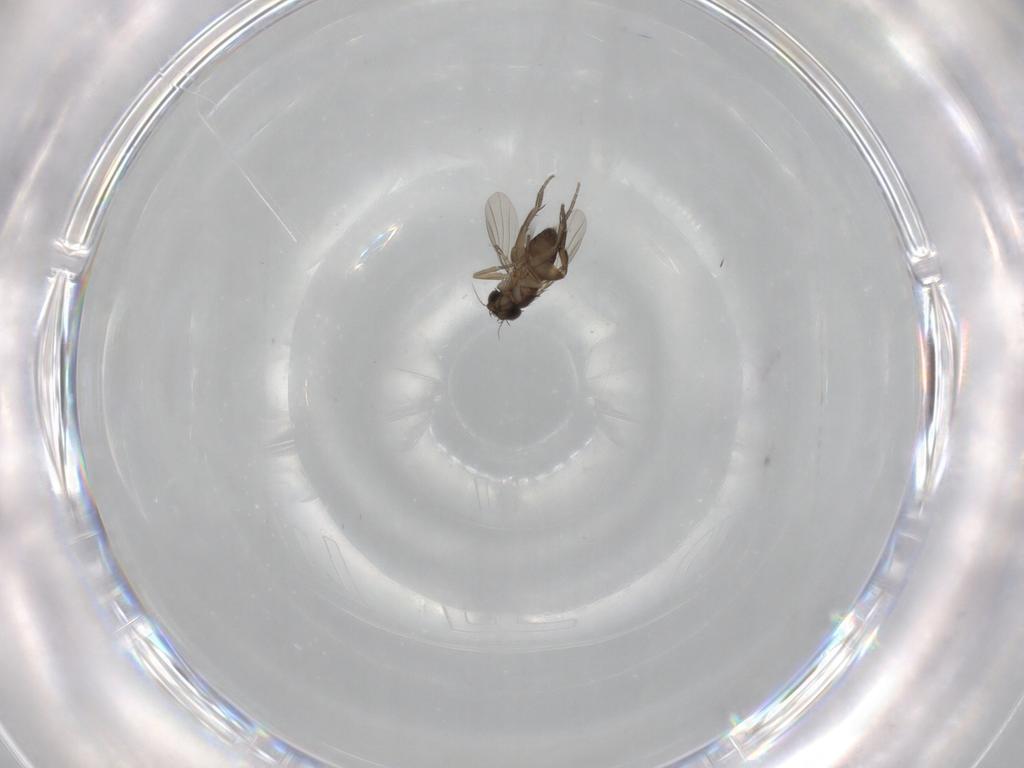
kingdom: Animalia
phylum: Arthropoda
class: Insecta
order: Diptera
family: Phoridae
